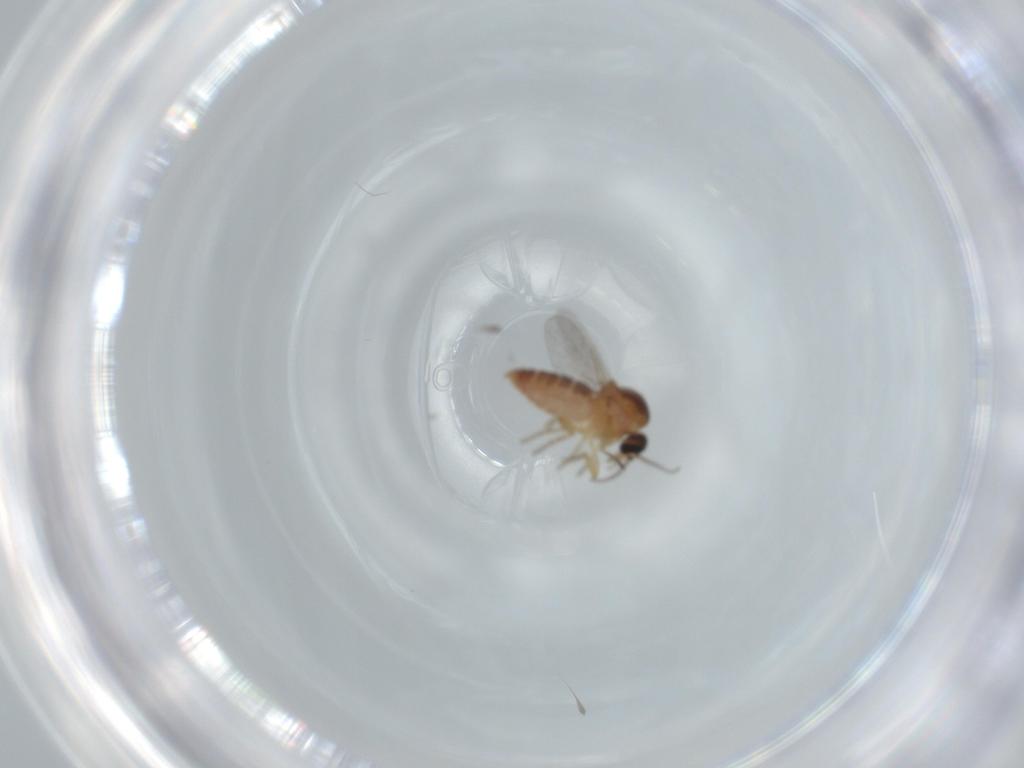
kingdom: Animalia
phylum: Arthropoda
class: Insecta
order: Diptera
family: Ceratopogonidae
